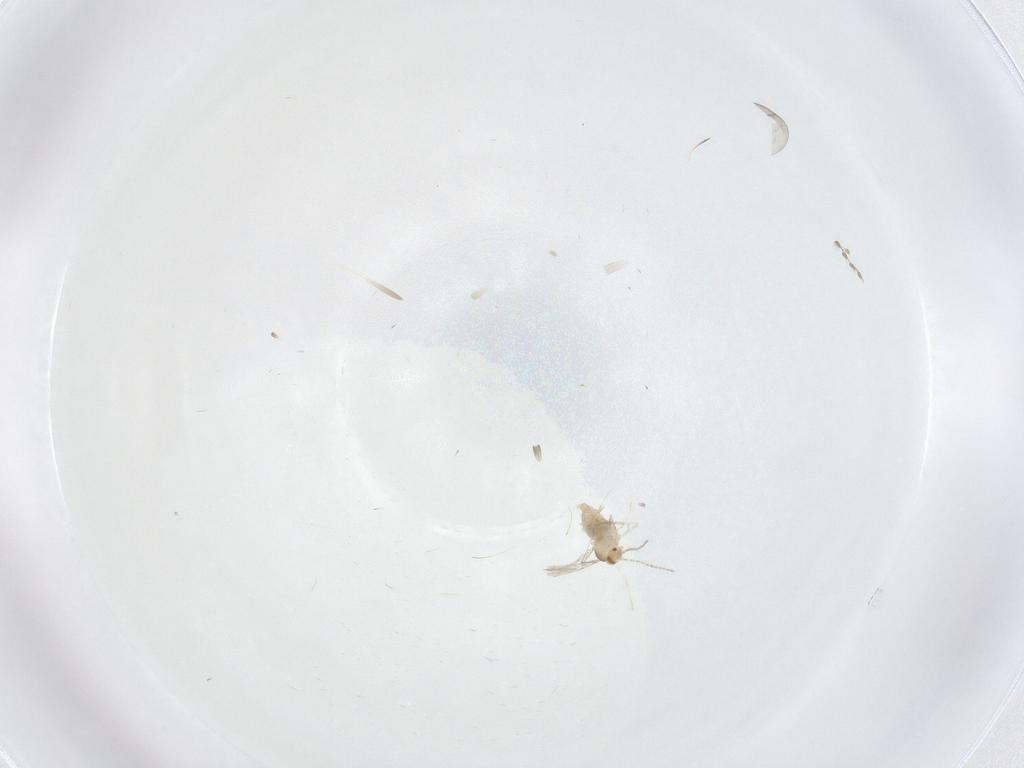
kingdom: Animalia
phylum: Arthropoda
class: Insecta
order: Diptera
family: Cecidomyiidae
